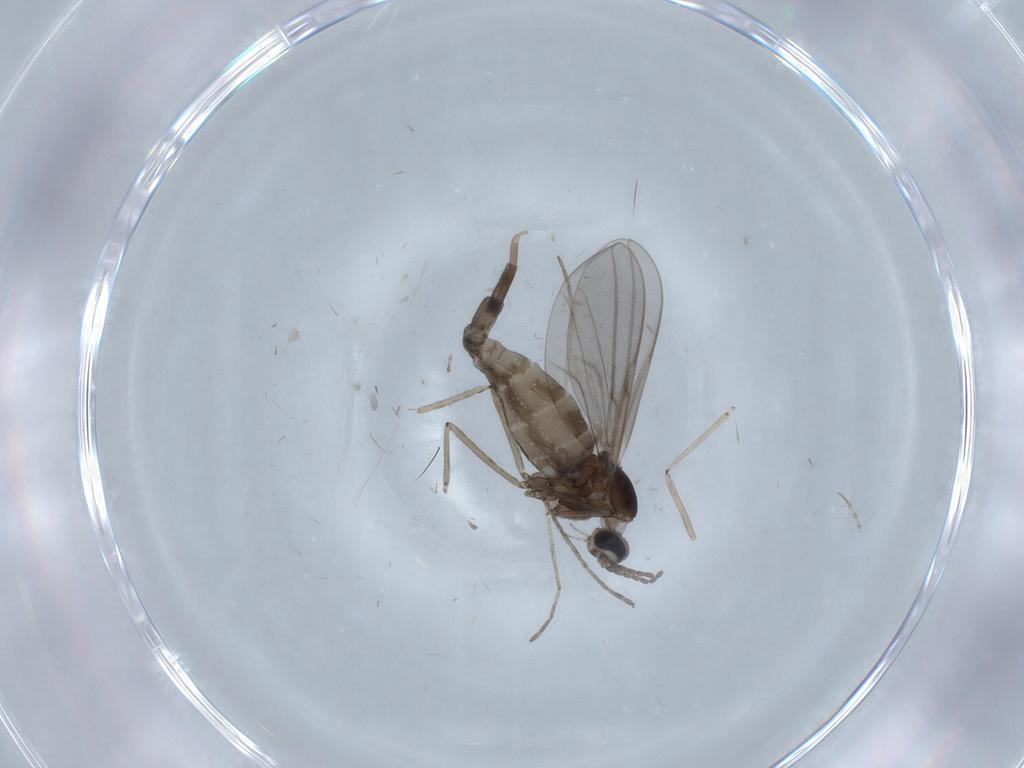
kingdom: Animalia
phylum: Arthropoda
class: Insecta
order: Diptera
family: Cecidomyiidae
